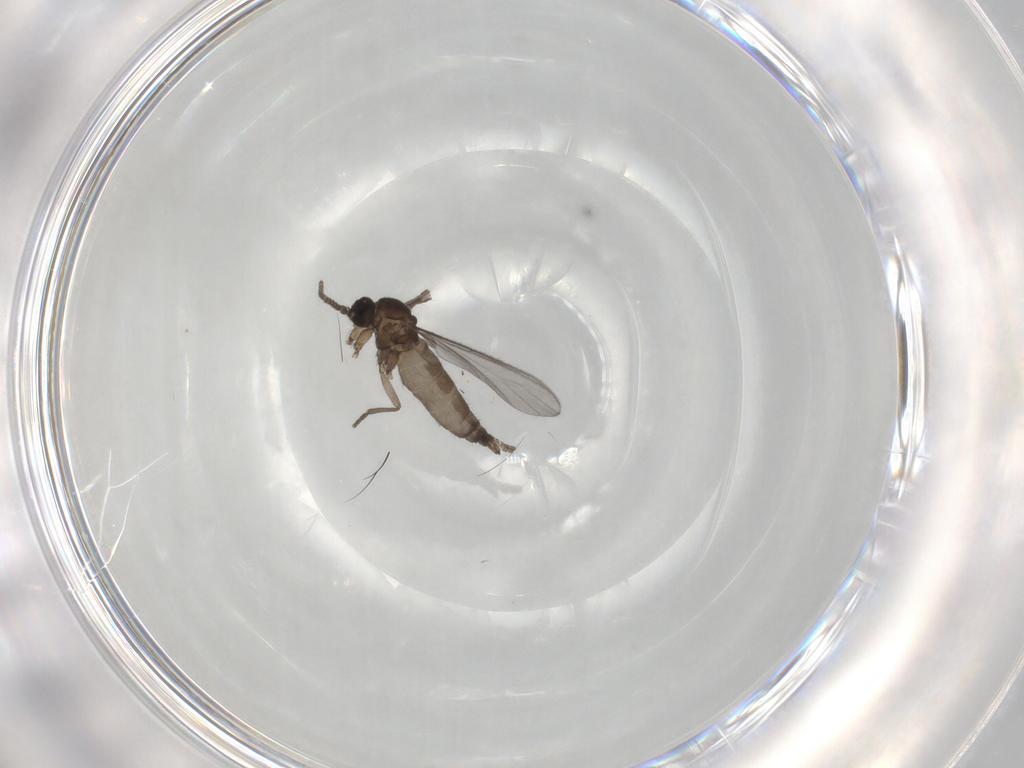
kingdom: Animalia
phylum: Arthropoda
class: Insecta
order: Diptera
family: Sciaridae
